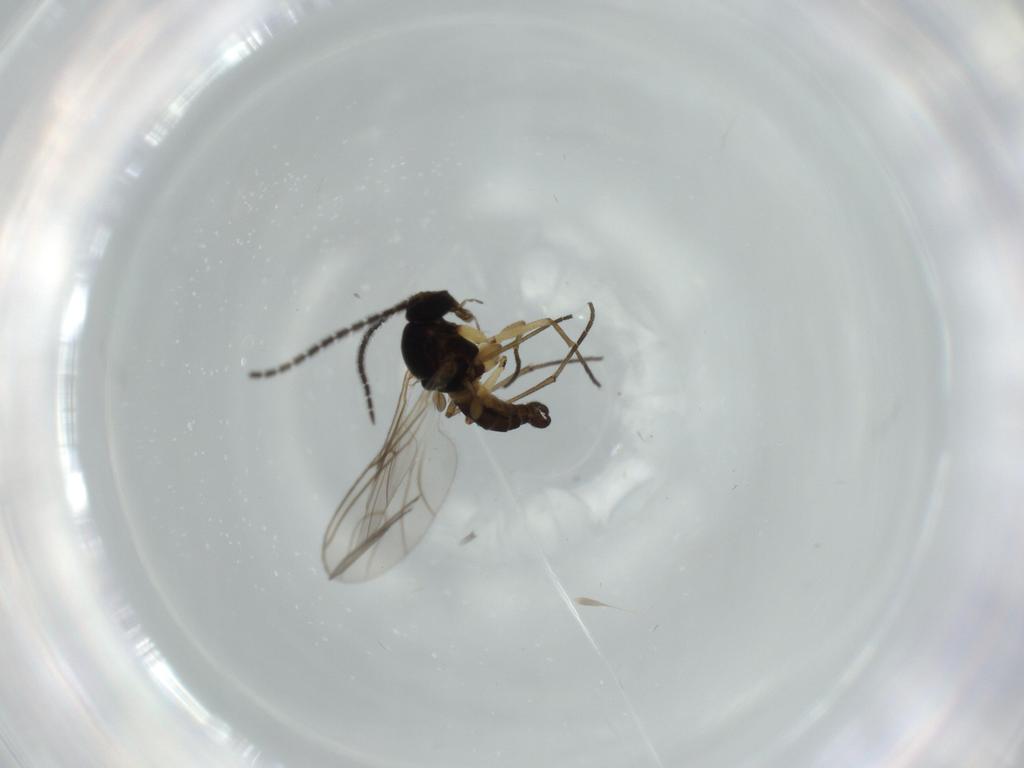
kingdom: Animalia
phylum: Arthropoda
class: Insecta
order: Diptera
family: Sciaridae
